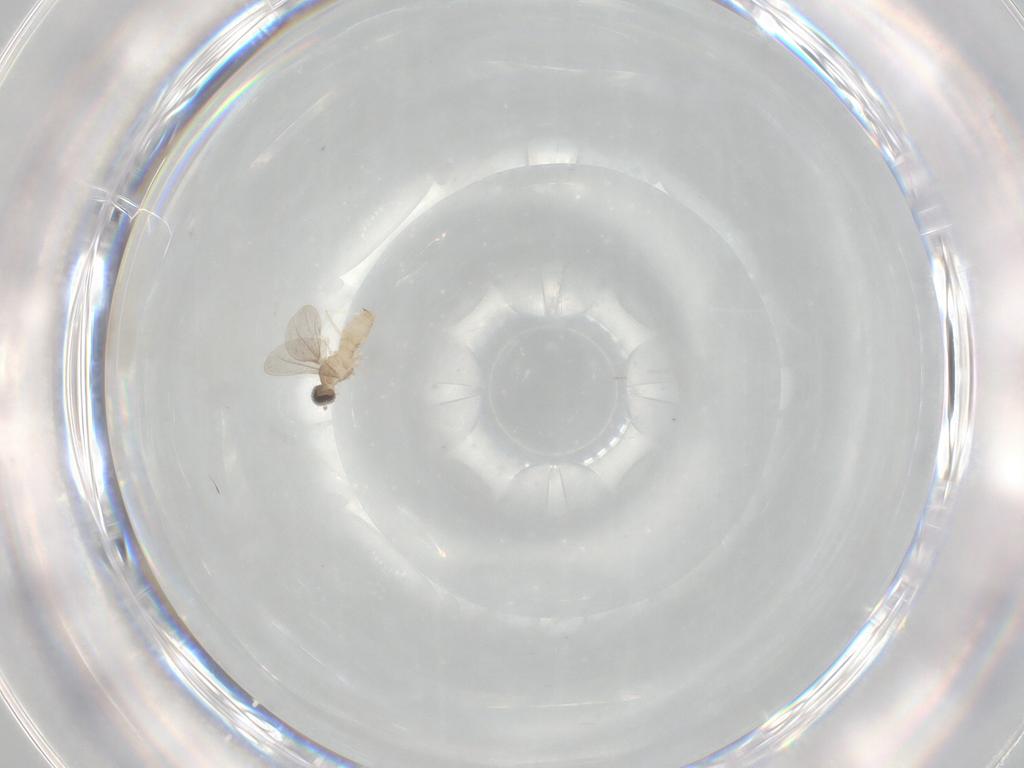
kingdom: Animalia
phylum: Arthropoda
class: Insecta
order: Diptera
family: Cecidomyiidae
